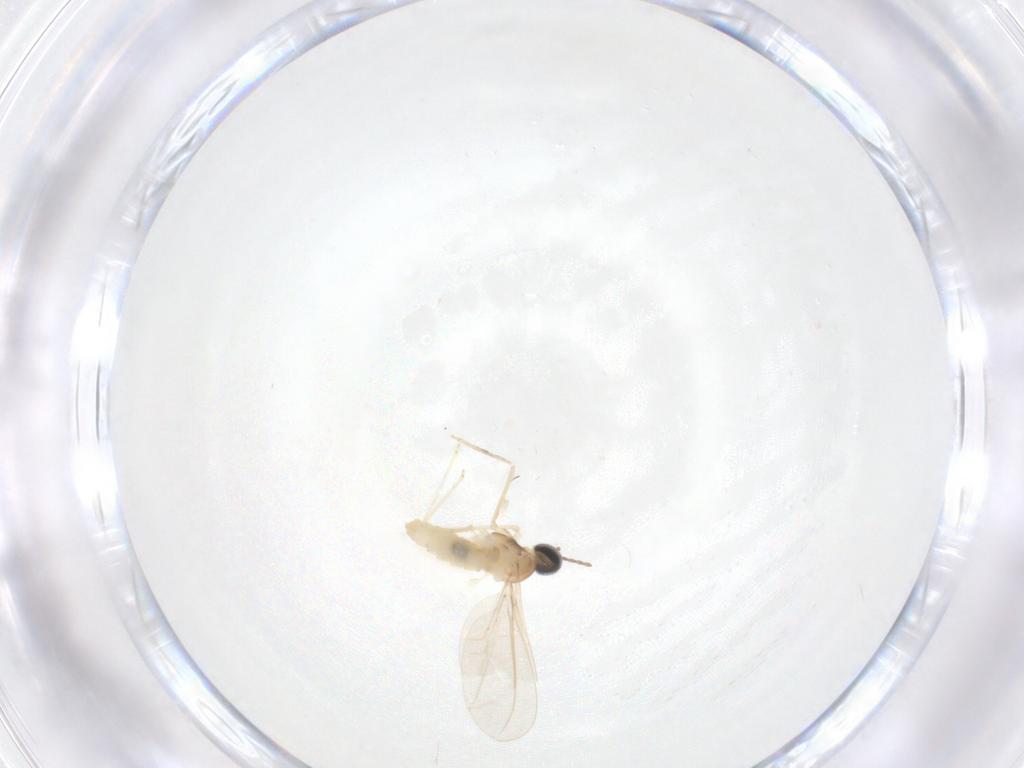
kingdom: Animalia
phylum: Arthropoda
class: Insecta
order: Diptera
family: Cecidomyiidae
